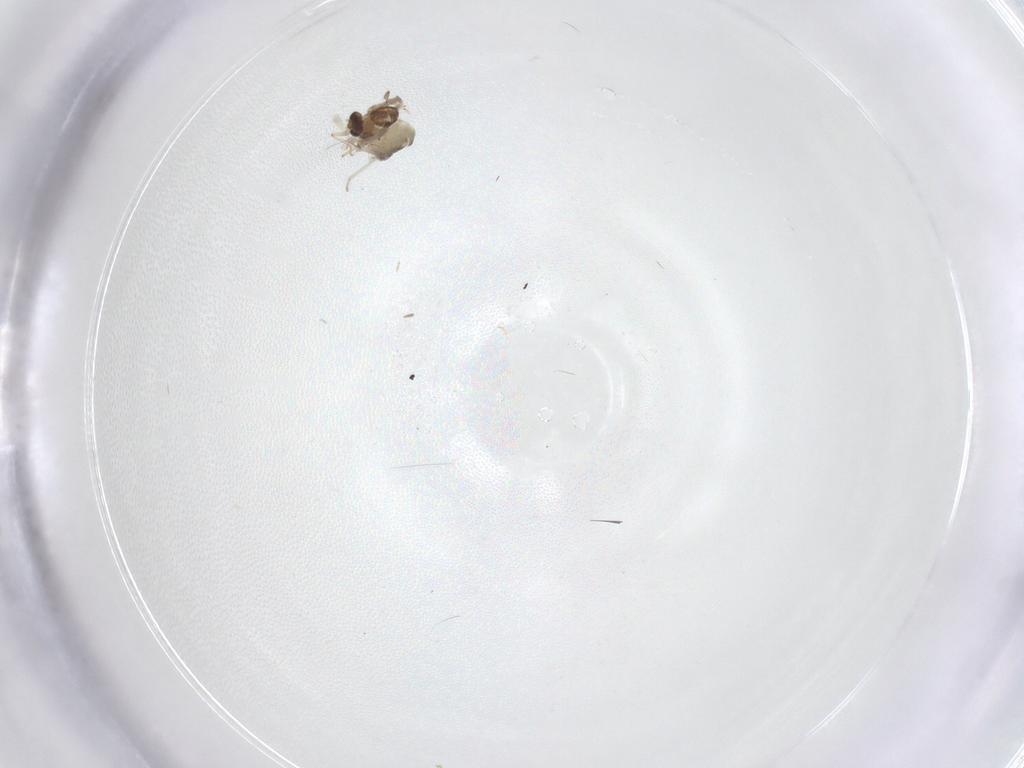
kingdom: Animalia
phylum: Arthropoda
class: Insecta
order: Diptera
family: Chironomidae
